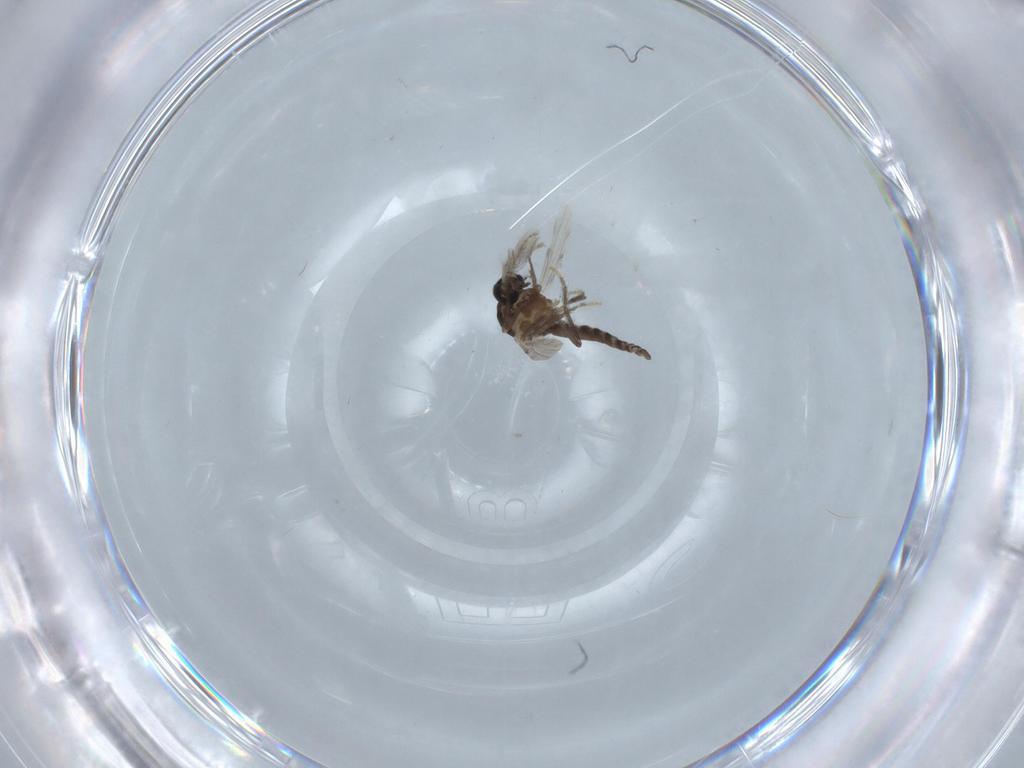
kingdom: Animalia
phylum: Arthropoda
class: Insecta
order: Diptera
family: Ceratopogonidae
